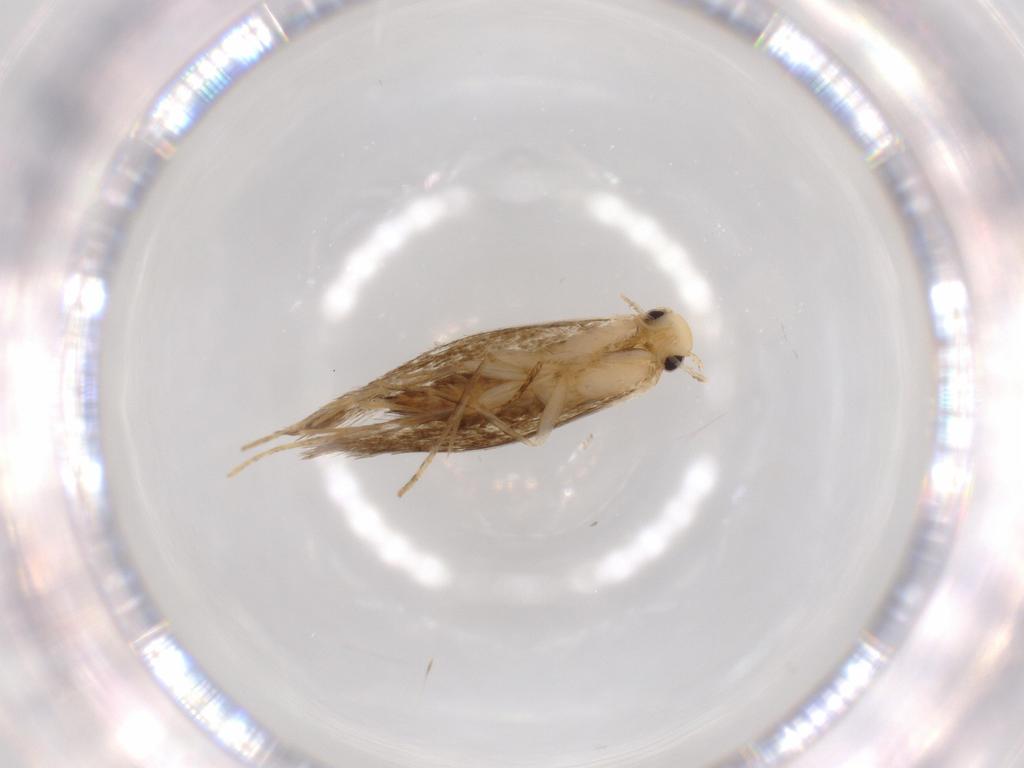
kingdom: Animalia
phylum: Arthropoda
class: Insecta
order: Lepidoptera
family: Tineidae
